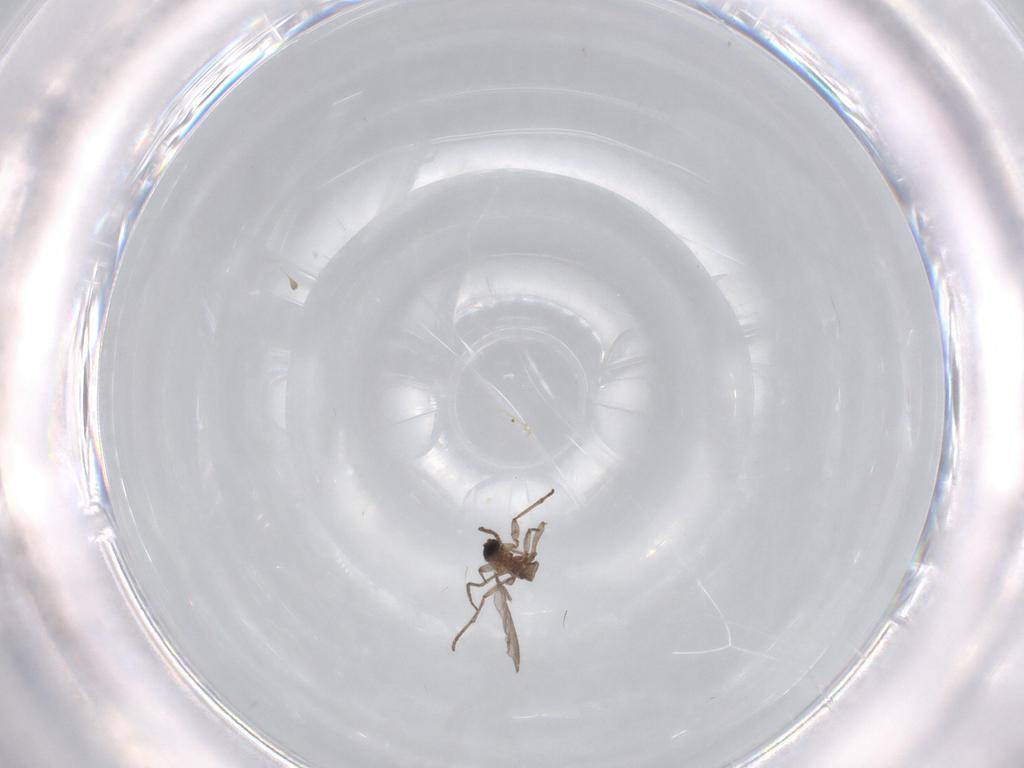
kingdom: Animalia
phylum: Arthropoda
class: Insecta
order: Diptera
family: Sciaridae
